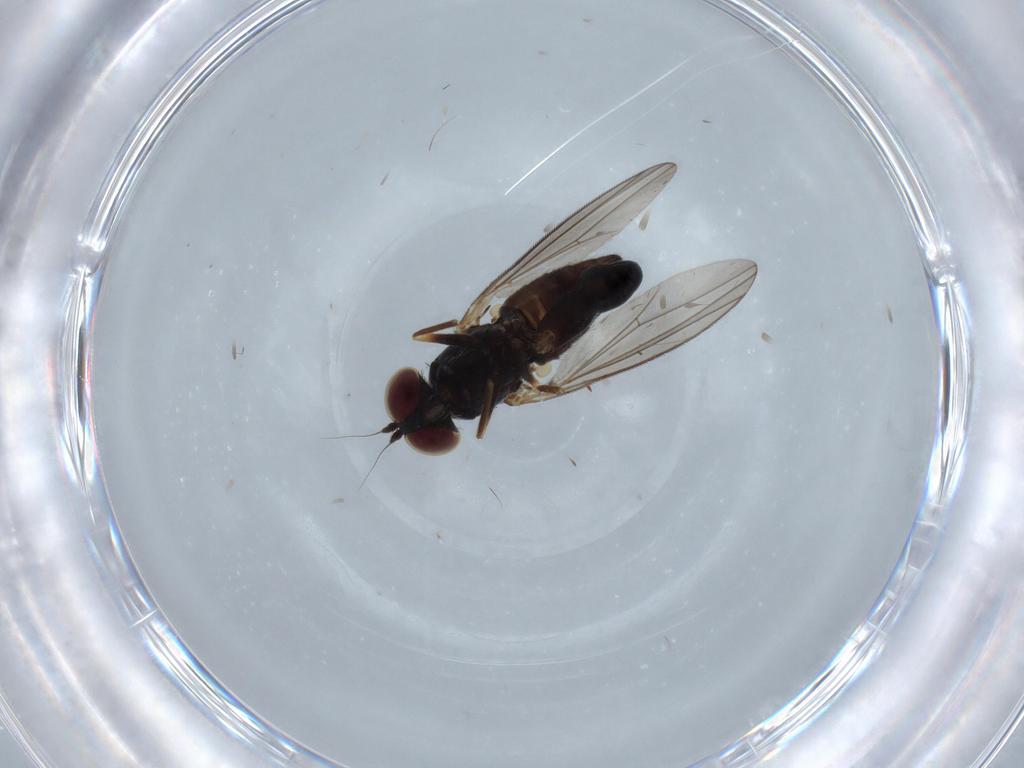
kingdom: Animalia
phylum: Arthropoda
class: Insecta
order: Diptera
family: Dolichopodidae
